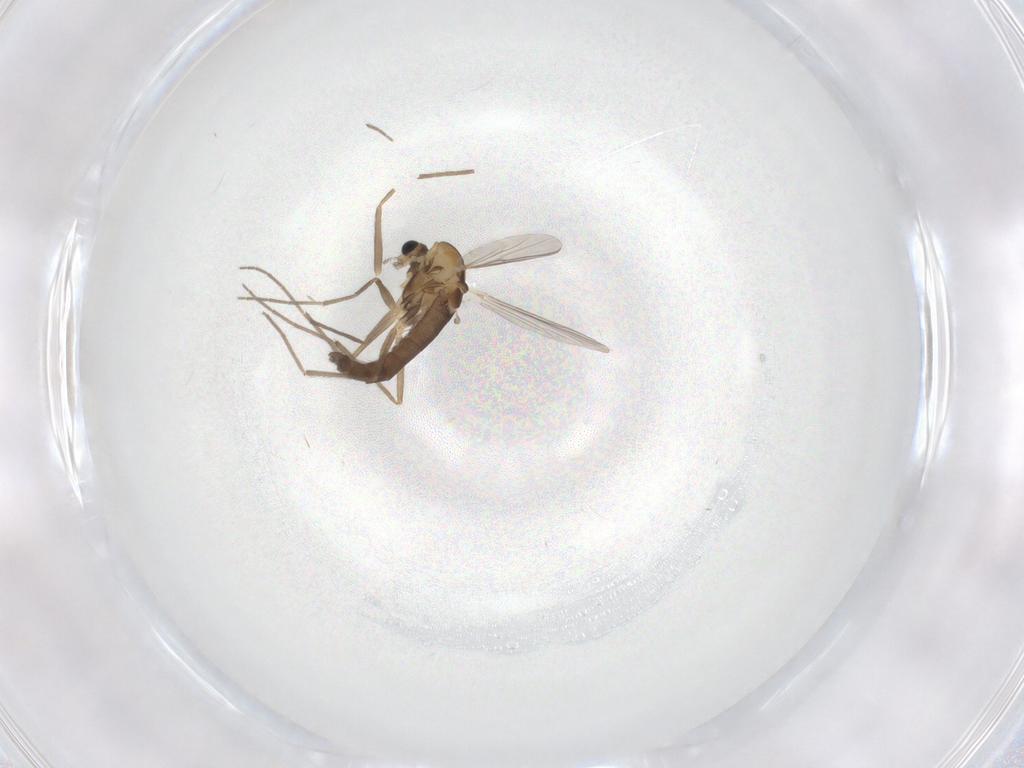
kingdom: Animalia
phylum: Arthropoda
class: Insecta
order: Diptera
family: Chironomidae
